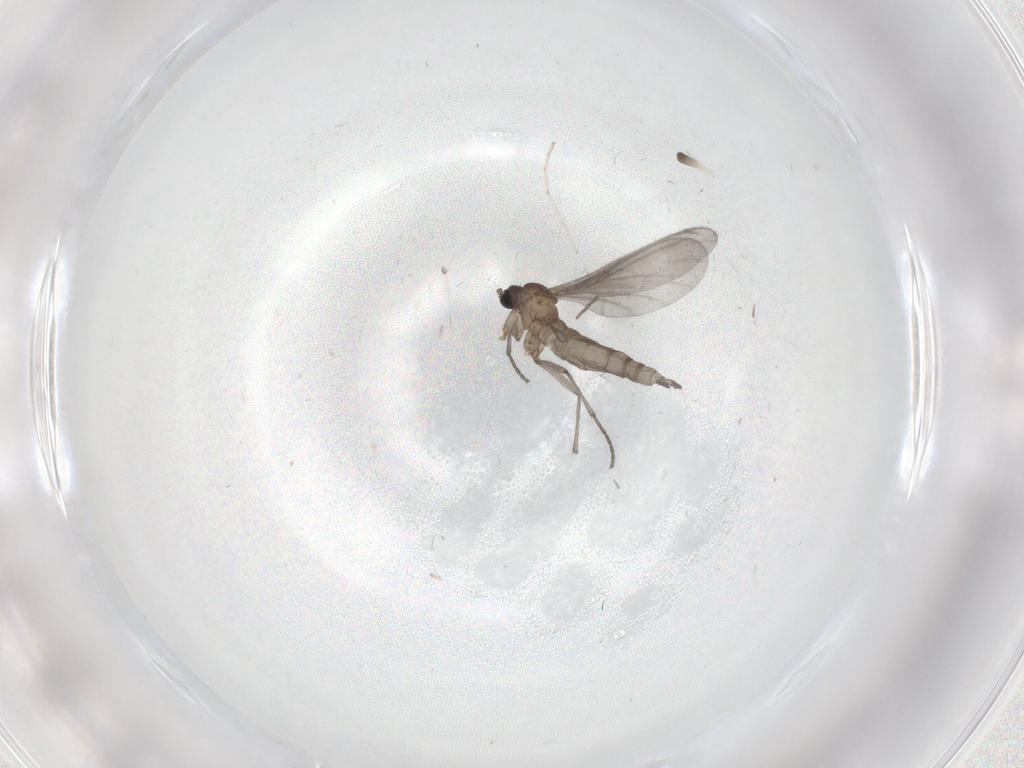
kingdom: Animalia
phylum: Arthropoda
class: Insecta
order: Diptera
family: Sciaridae
